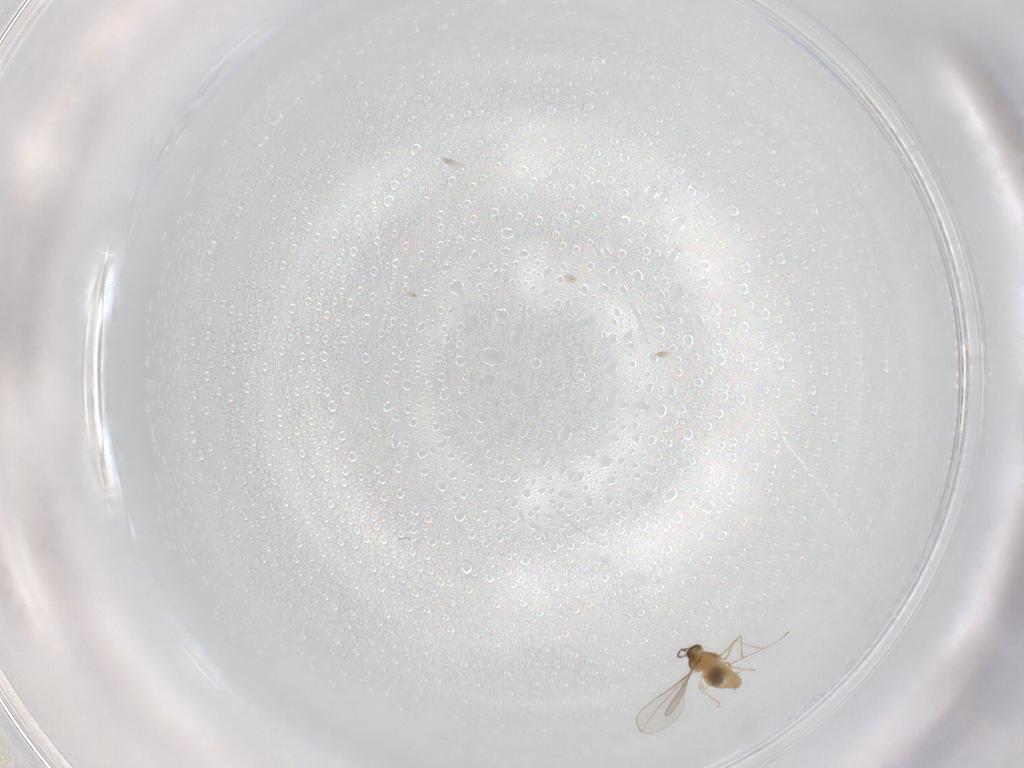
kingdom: Animalia
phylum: Arthropoda
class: Insecta
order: Diptera
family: Cecidomyiidae
